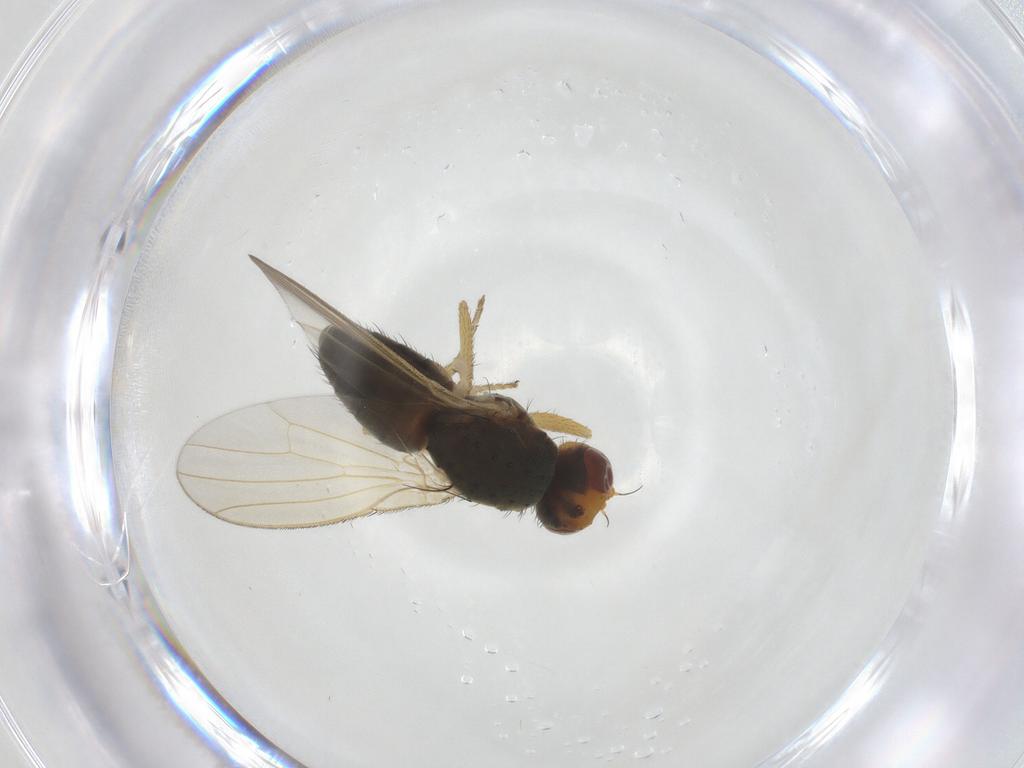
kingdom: Animalia
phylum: Arthropoda
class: Insecta
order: Diptera
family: Heleomyzidae
